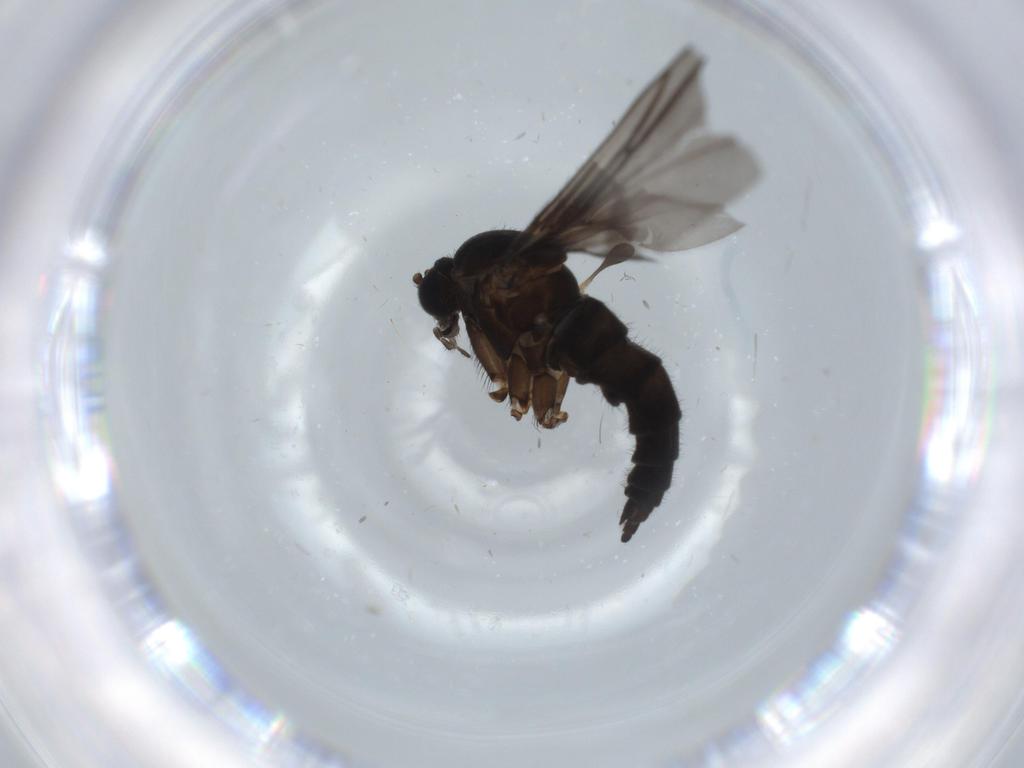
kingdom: Animalia
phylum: Arthropoda
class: Insecta
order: Diptera
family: Sciaridae
